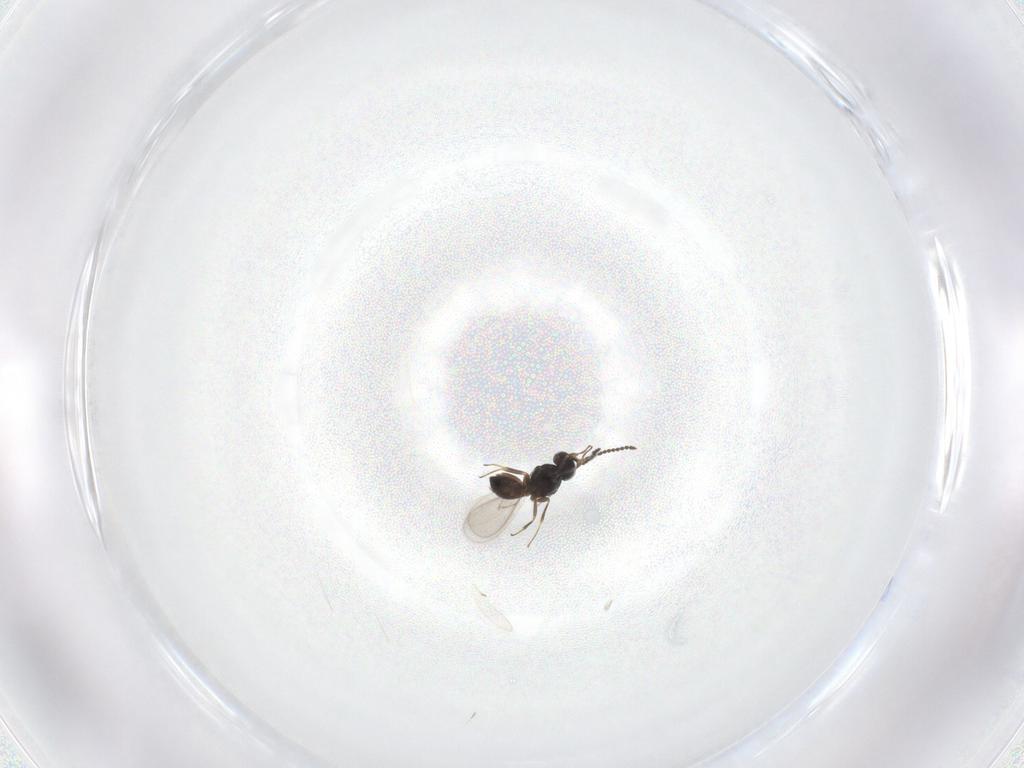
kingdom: Animalia
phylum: Arthropoda
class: Insecta
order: Hymenoptera
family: Scelionidae
